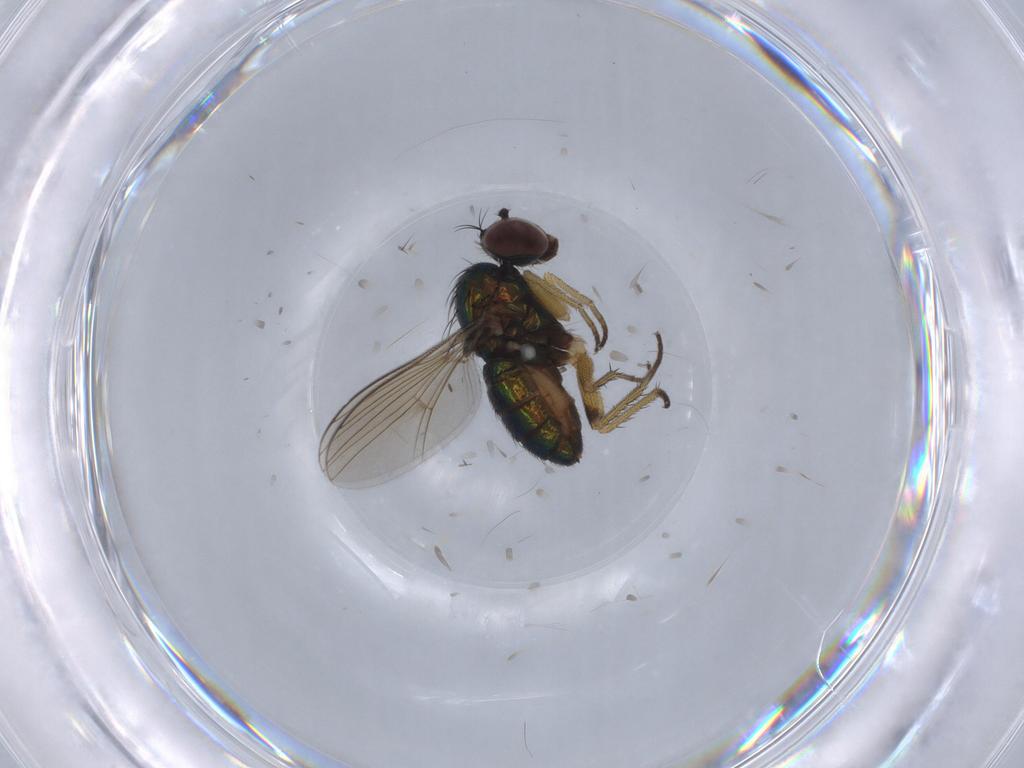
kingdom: Animalia
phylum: Arthropoda
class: Insecta
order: Diptera
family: Dolichopodidae
